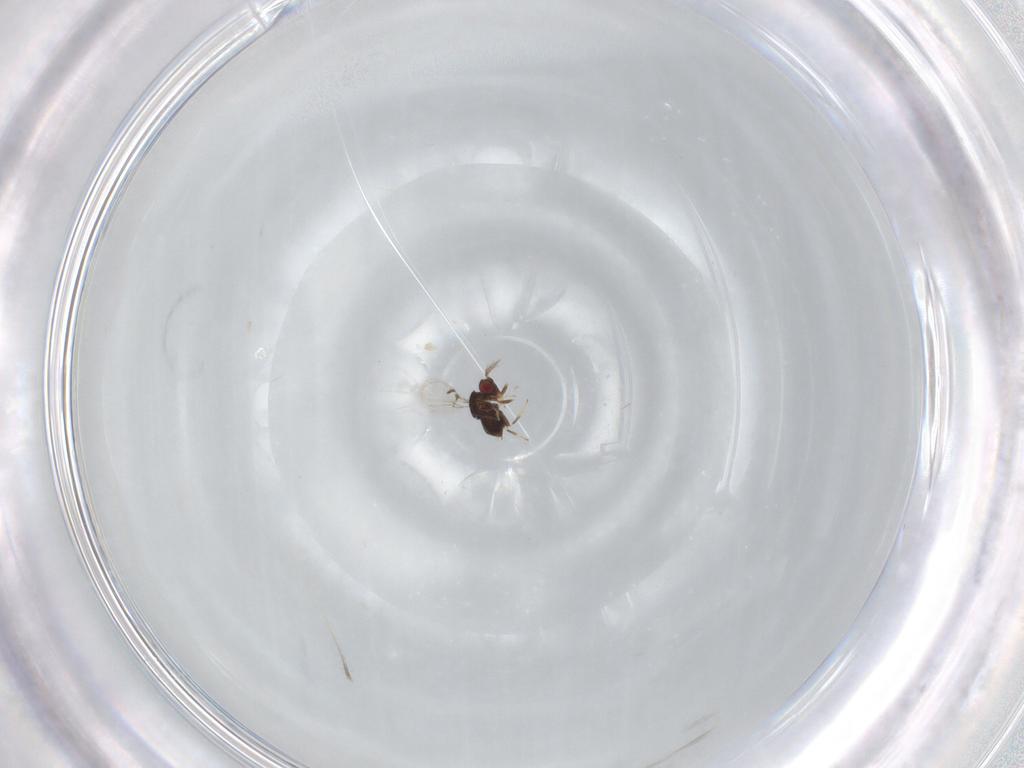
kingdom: Animalia
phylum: Arthropoda
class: Insecta
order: Hymenoptera
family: Trichogrammatidae
